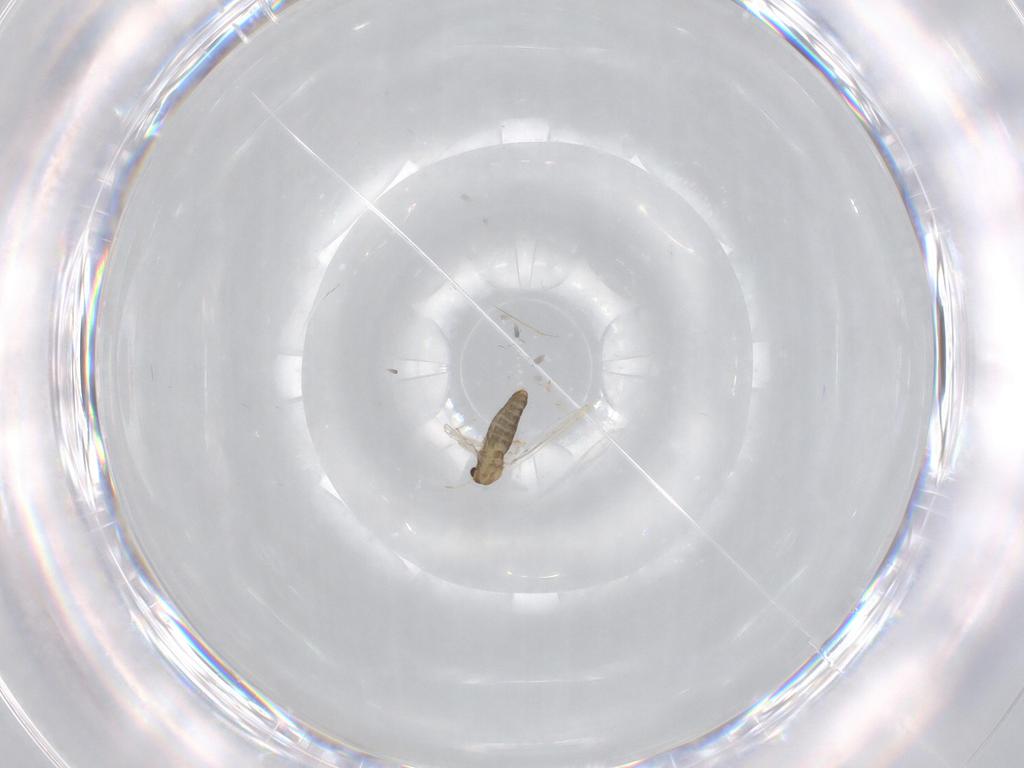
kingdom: Animalia
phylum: Arthropoda
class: Insecta
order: Diptera
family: Chironomidae
